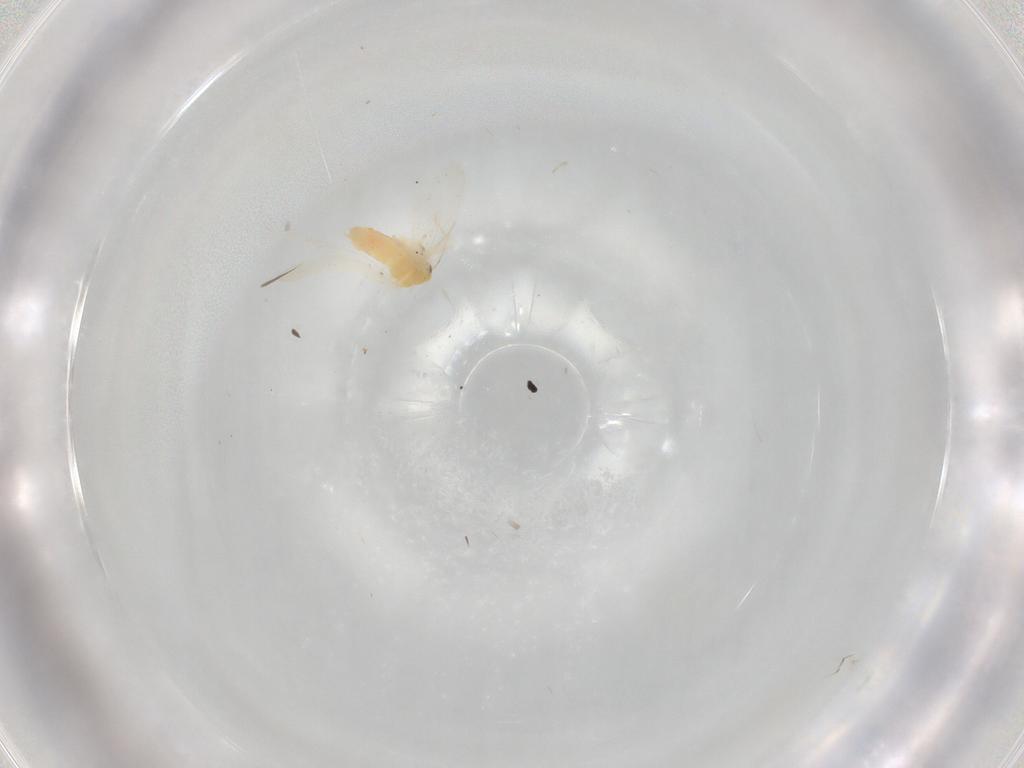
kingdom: Animalia
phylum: Arthropoda
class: Insecta
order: Hemiptera
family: Aleyrodidae
